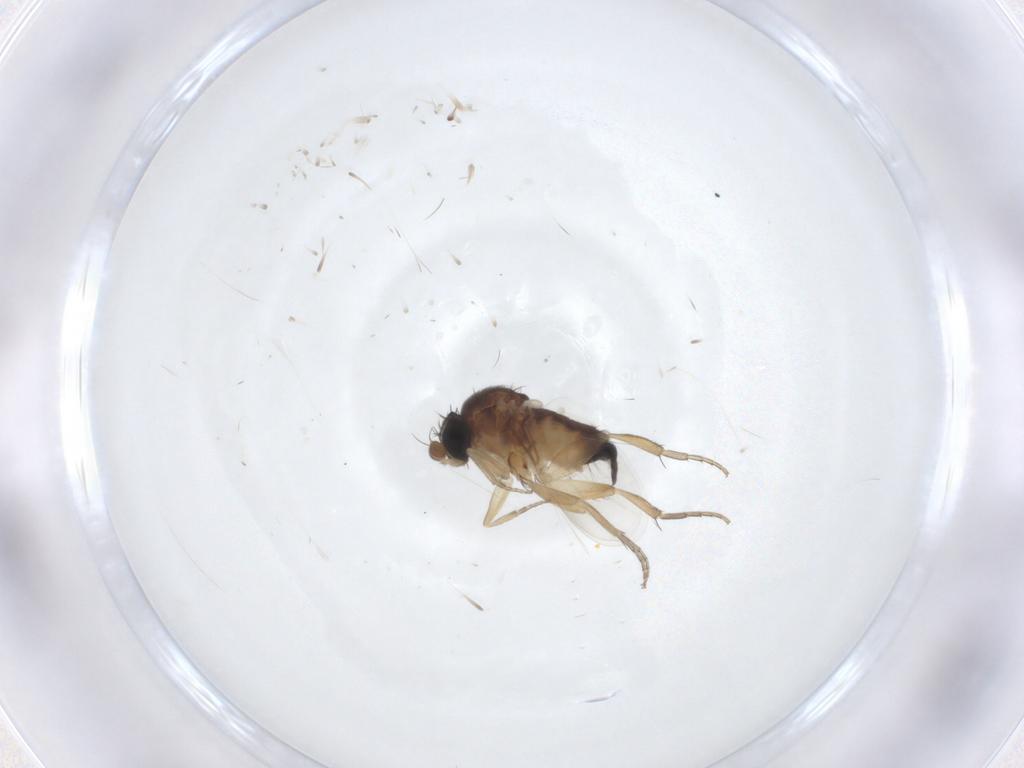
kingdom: Animalia
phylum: Arthropoda
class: Insecta
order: Diptera
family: Phoridae
